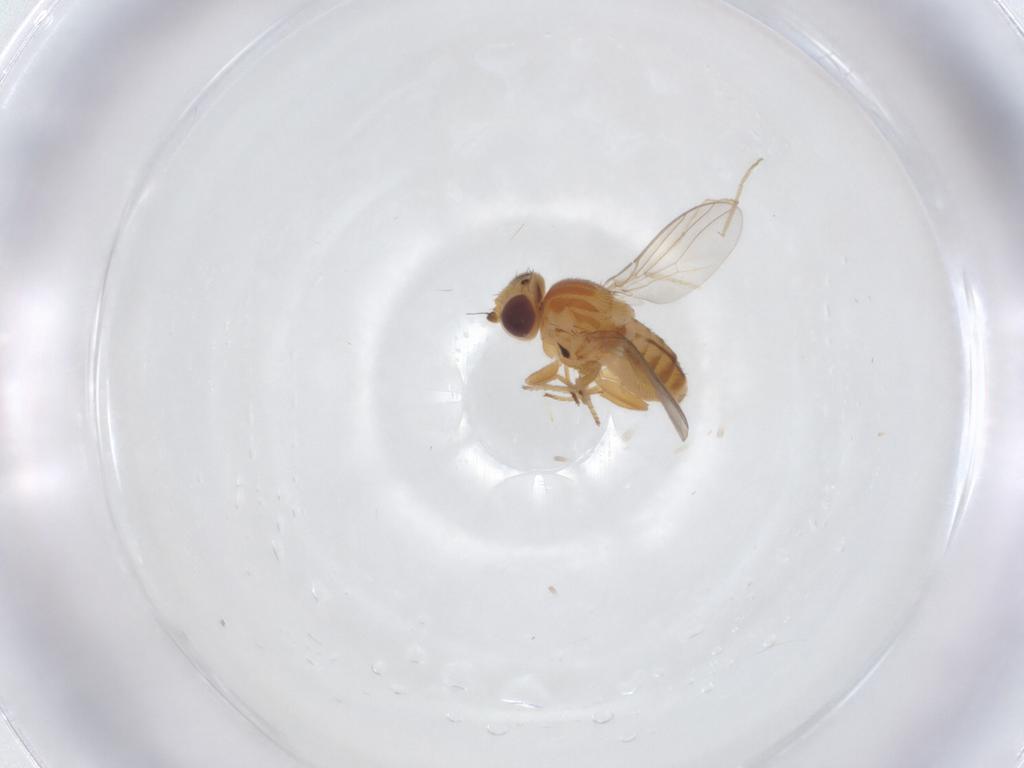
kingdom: Animalia
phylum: Arthropoda
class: Insecta
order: Diptera
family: Chloropidae
